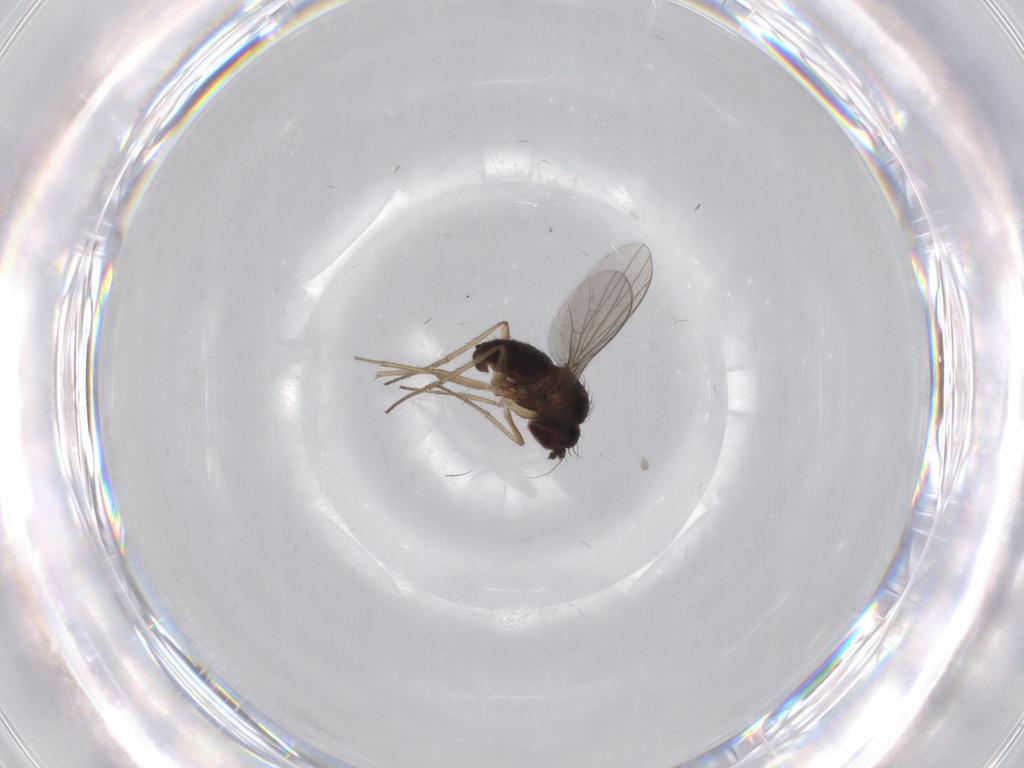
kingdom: Animalia
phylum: Arthropoda
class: Insecta
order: Diptera
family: Dolichopodidae
